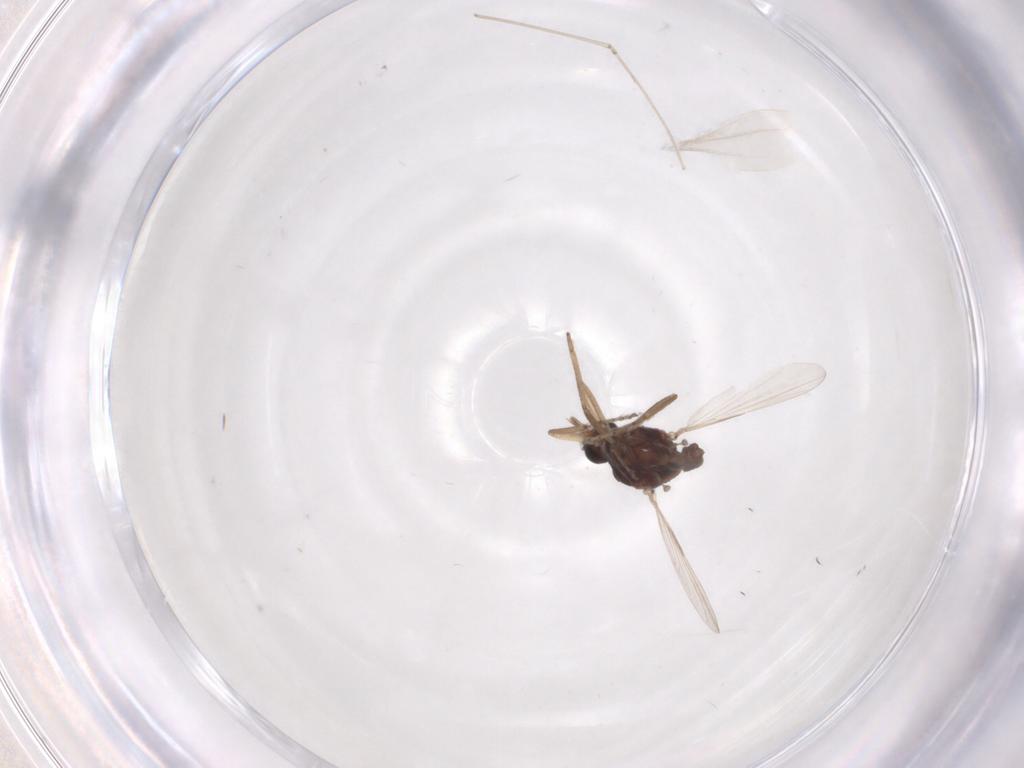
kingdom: Animalia
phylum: Arthropoda
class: Insecta
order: Diptera
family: Ceratopogonidae
